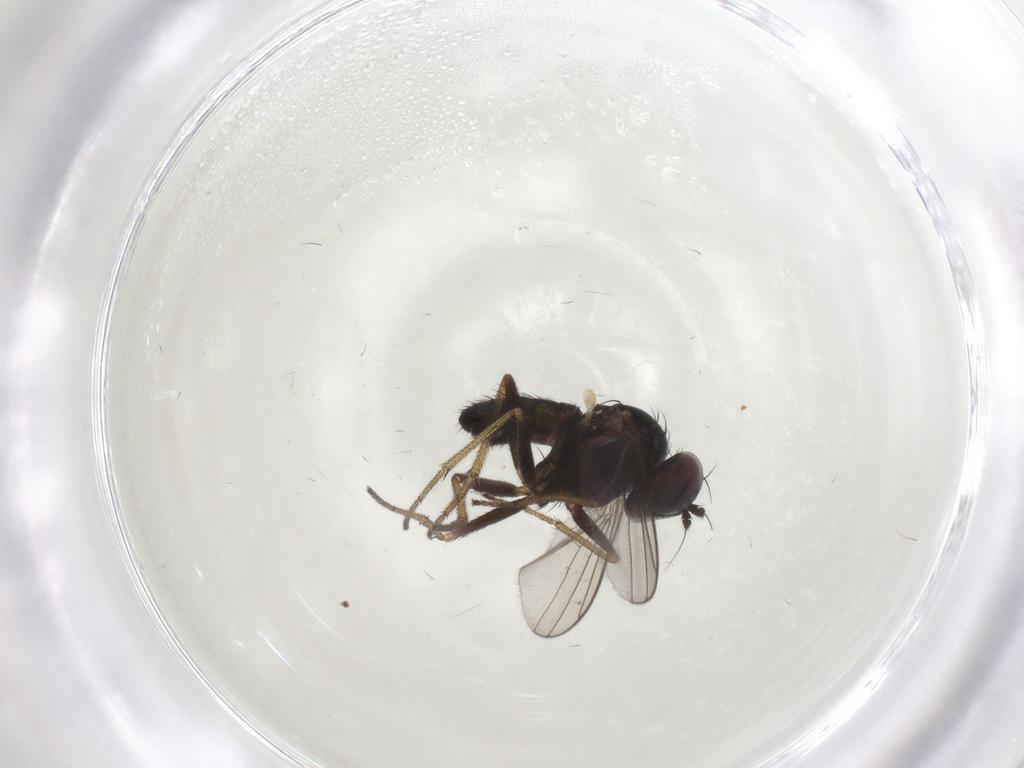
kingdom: Animalia
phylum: Arthropoda
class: Insecta
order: Diptera
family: Dolichopodidae
